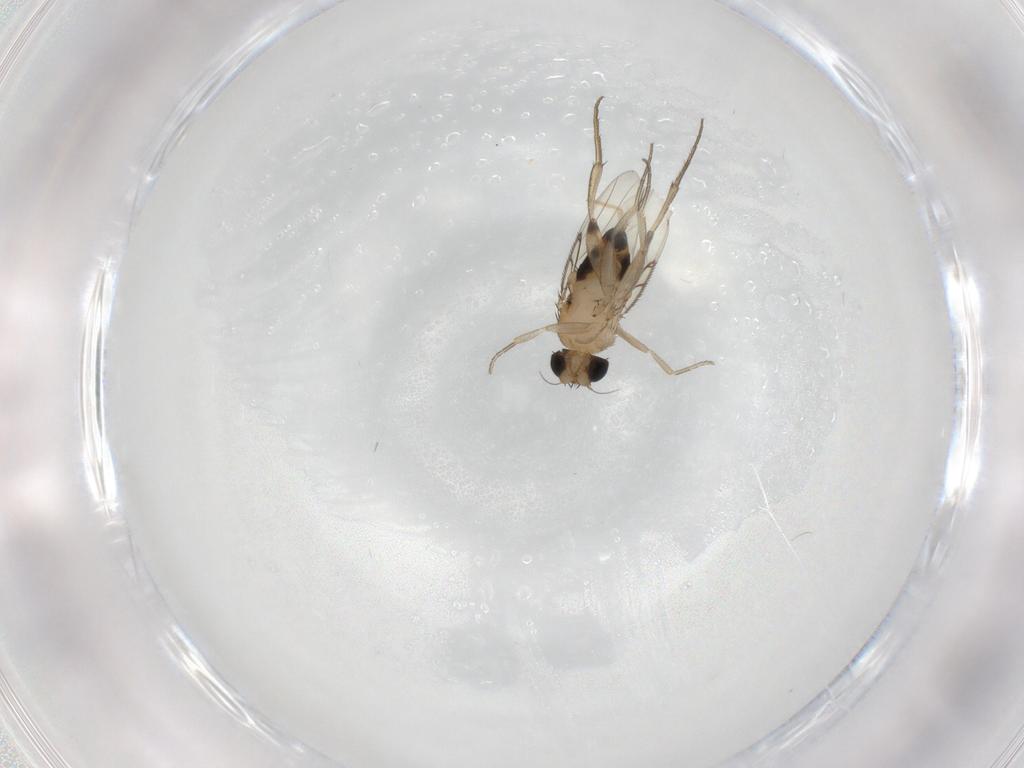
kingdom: Animalia
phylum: Arthropoda
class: Insecta
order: Diptera
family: Phoridae
